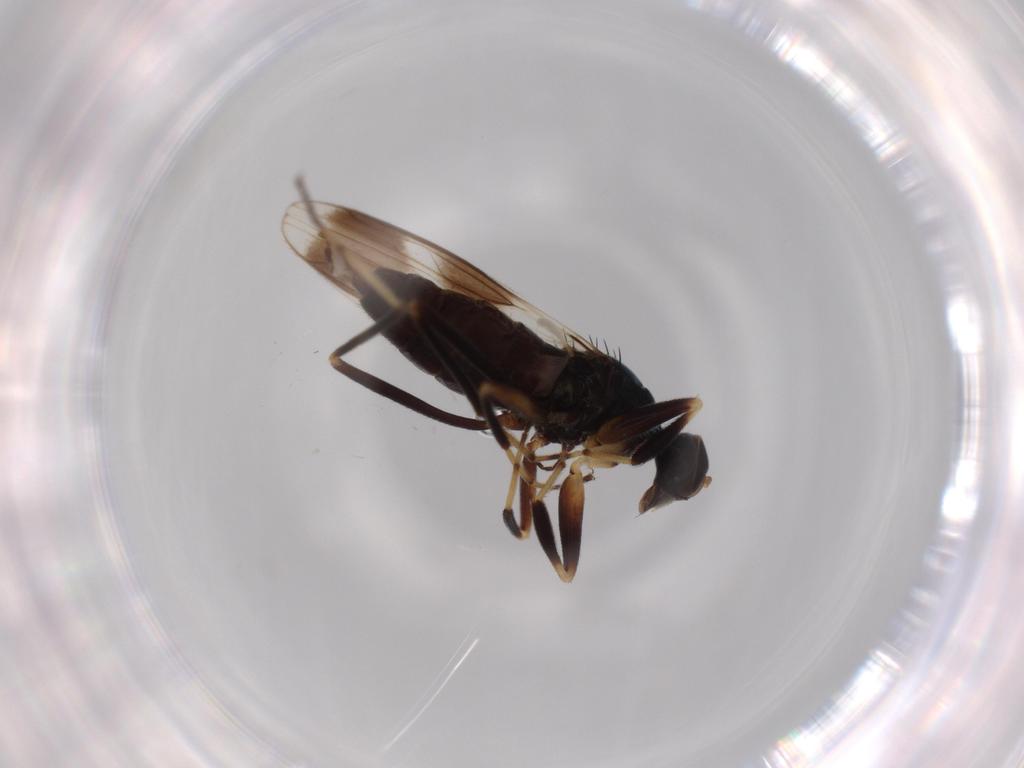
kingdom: Animalia
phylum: Arthropoda
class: Insecta
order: Diptera
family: Hybotidae
